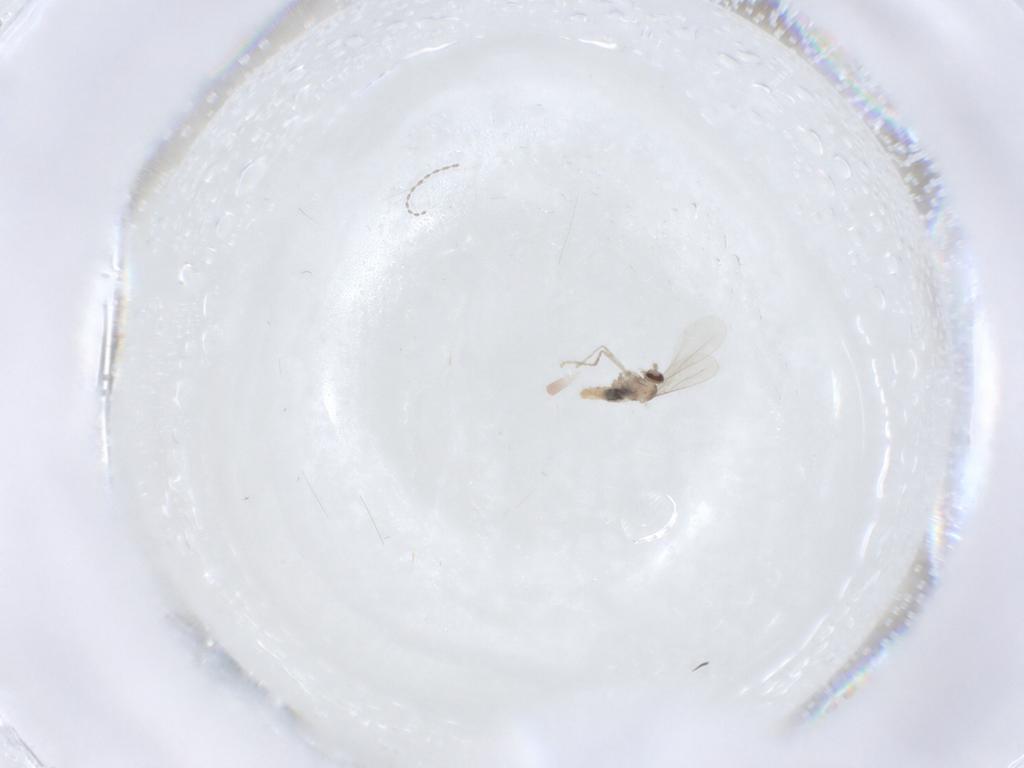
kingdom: Animalia
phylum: Arthropoda
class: Insecta
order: Diptera
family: Cecidomyiidae
